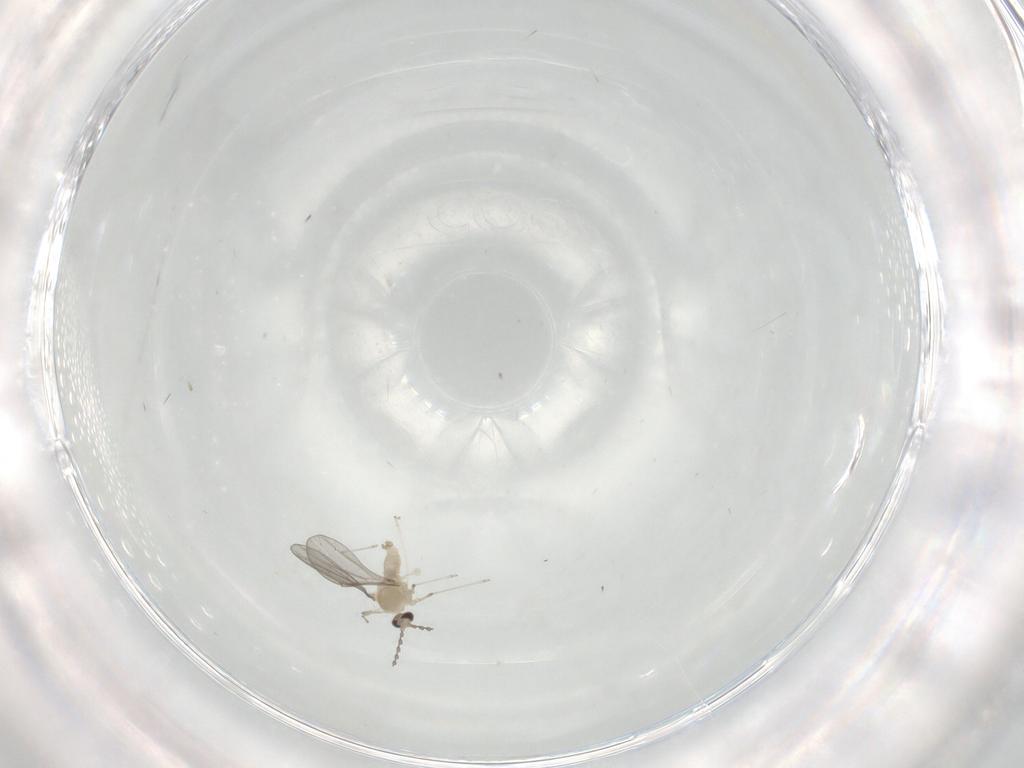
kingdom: Animalia
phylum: Arthropoda
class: Insecta
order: Diptera
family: Cecidomyiidae
